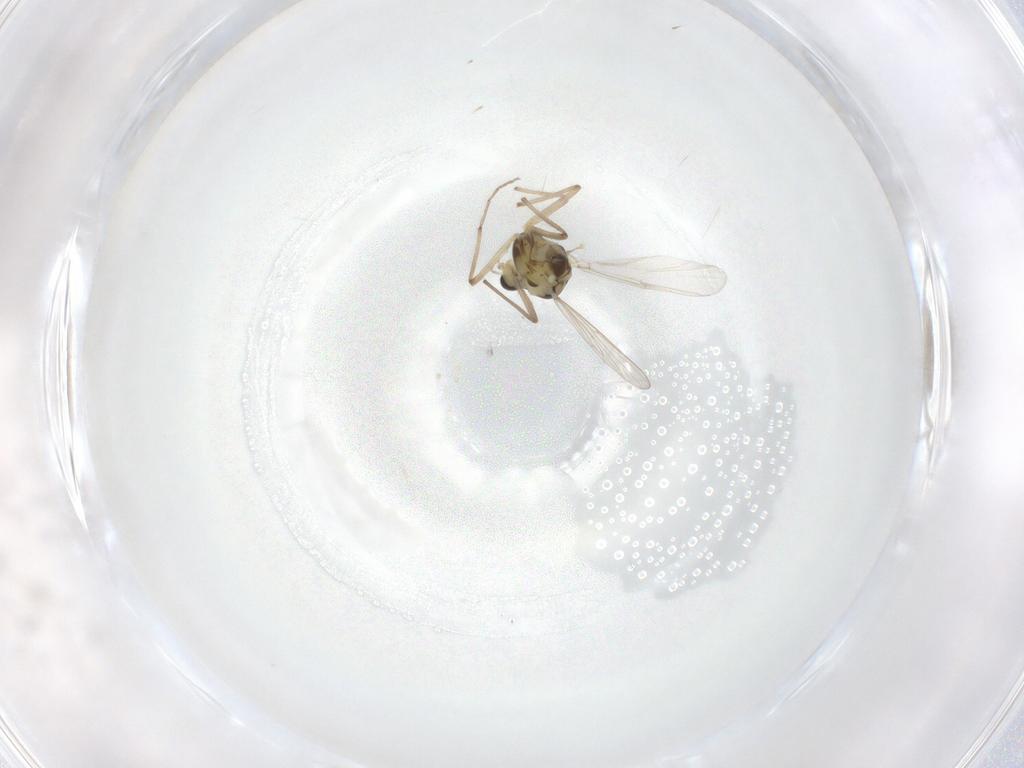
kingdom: Animalia
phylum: Arthropoda
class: Insecta
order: Diptera
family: Chironomidae
